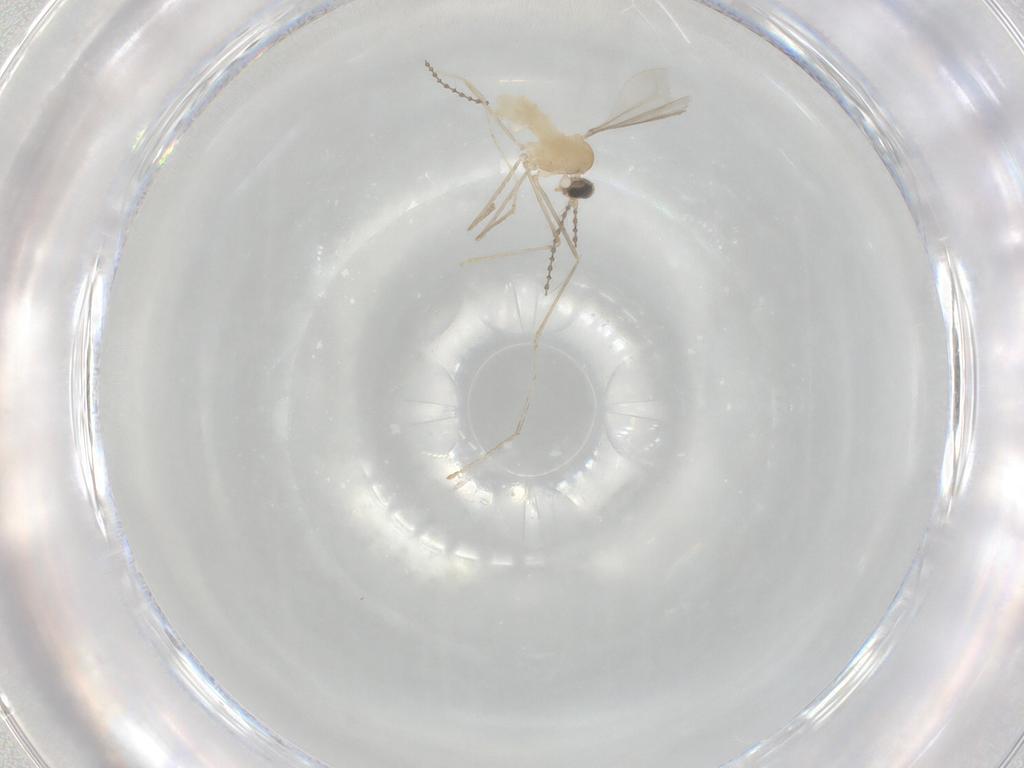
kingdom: Animalia
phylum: Arthropoda
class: Insecta
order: Diptera
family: Cecidomyiidae
